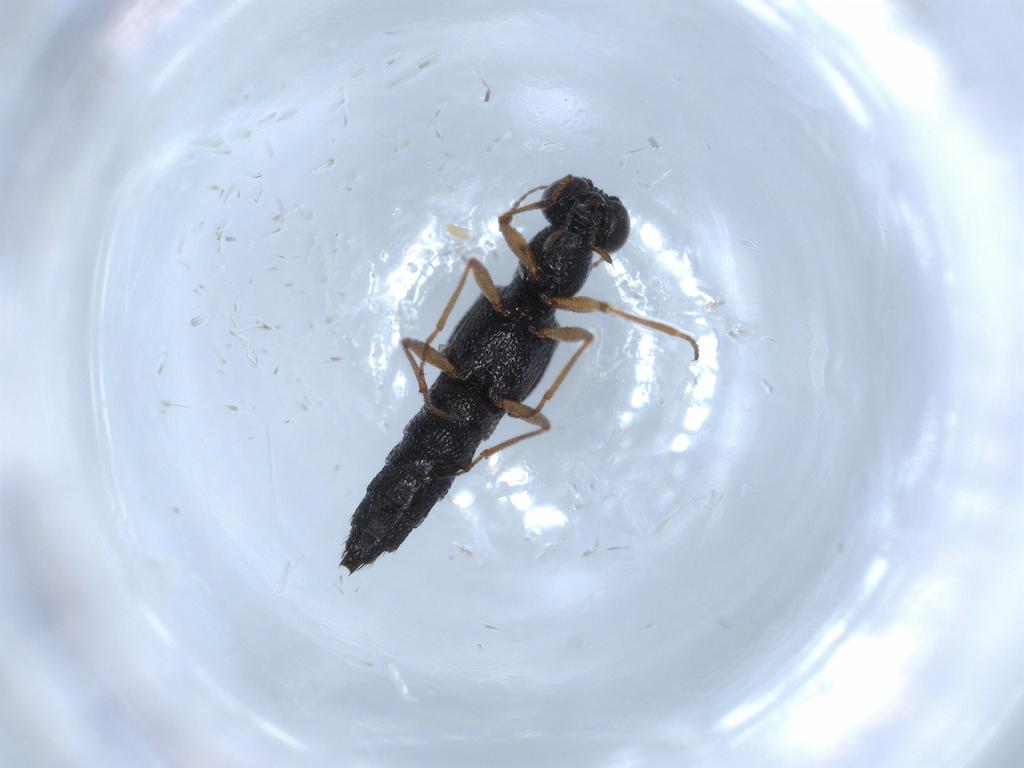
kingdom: Animalia
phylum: Arthropoda
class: Insecta
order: Coleoptera
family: Staphylinidae
